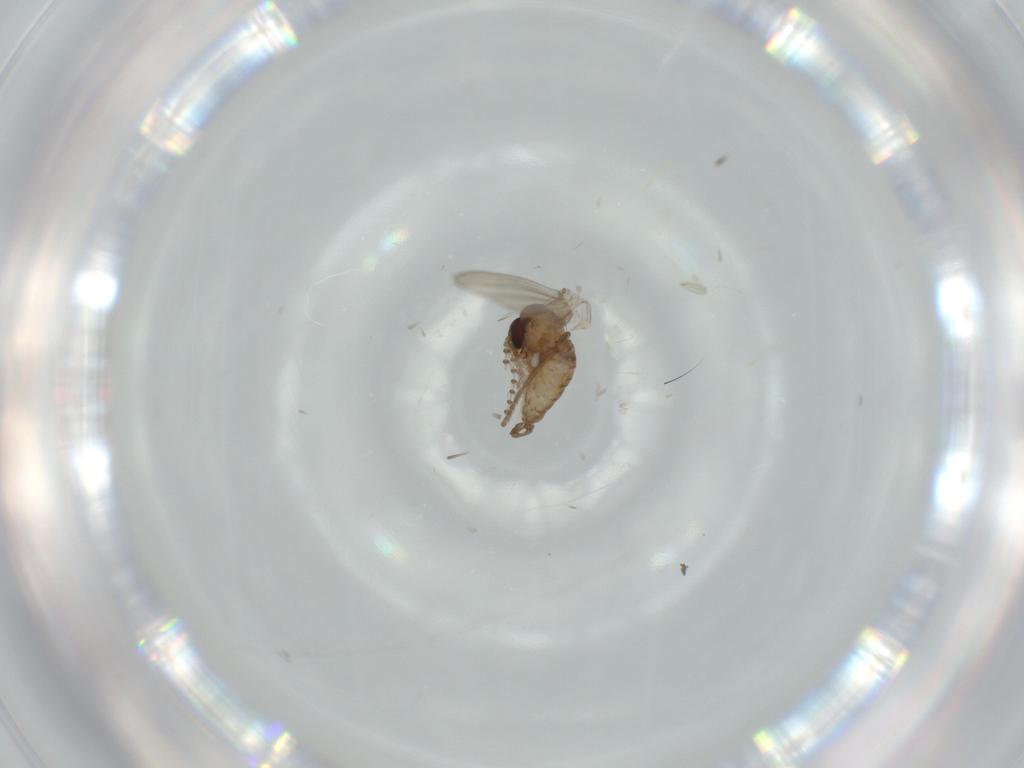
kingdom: Animalia
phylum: Arthropoda
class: Insecta
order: Diptera
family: Psychodidae
